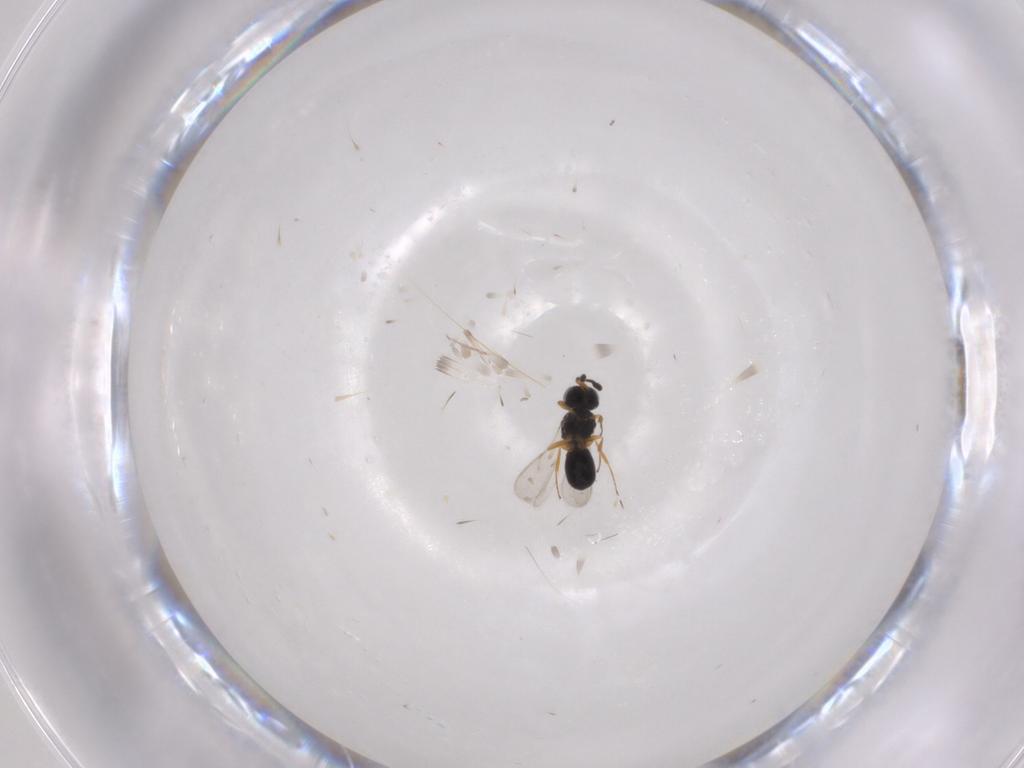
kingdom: Animalia
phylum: Arthropoda
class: Insecta
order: Hymenoptera
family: Scelionidae
